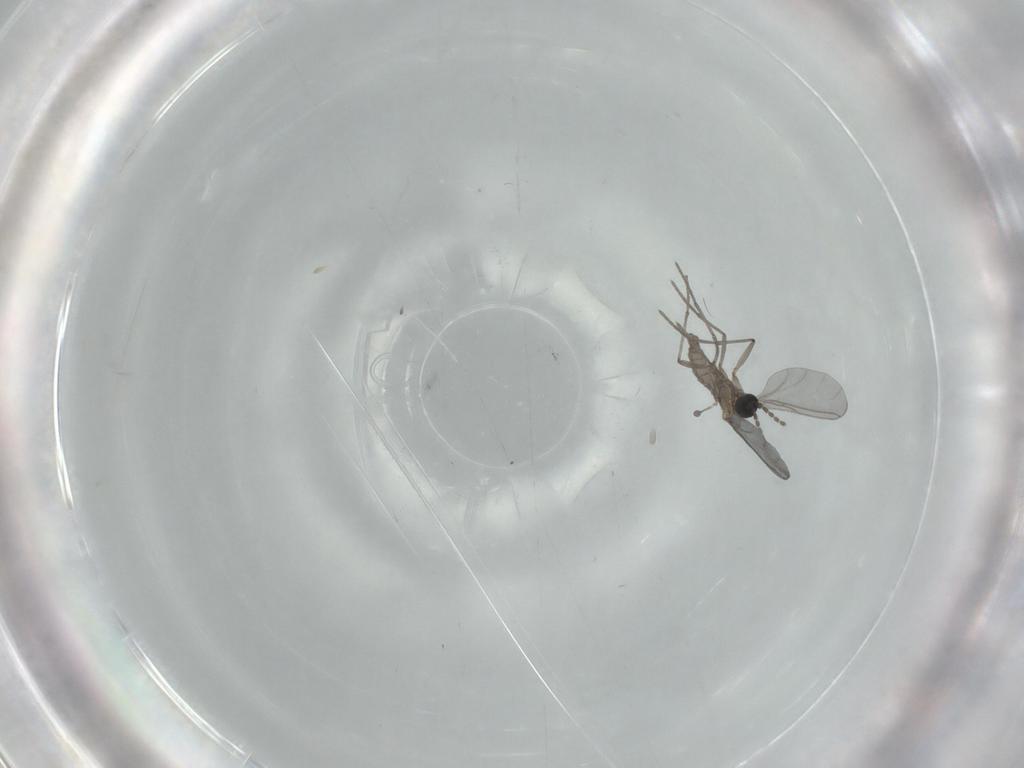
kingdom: Animalia
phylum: Arthropoda
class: Insecta
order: Diptera
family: Sciaridae
